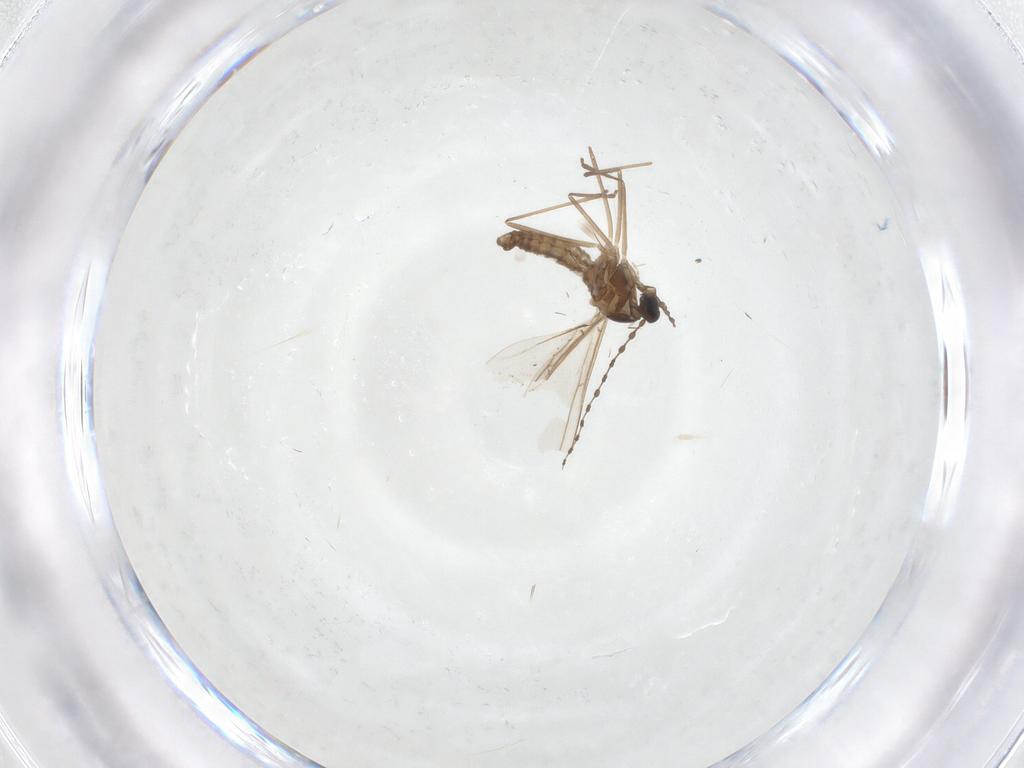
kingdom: Animalia
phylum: Arthropoda
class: Insecta
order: Diptera
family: Cecidomyiidae
